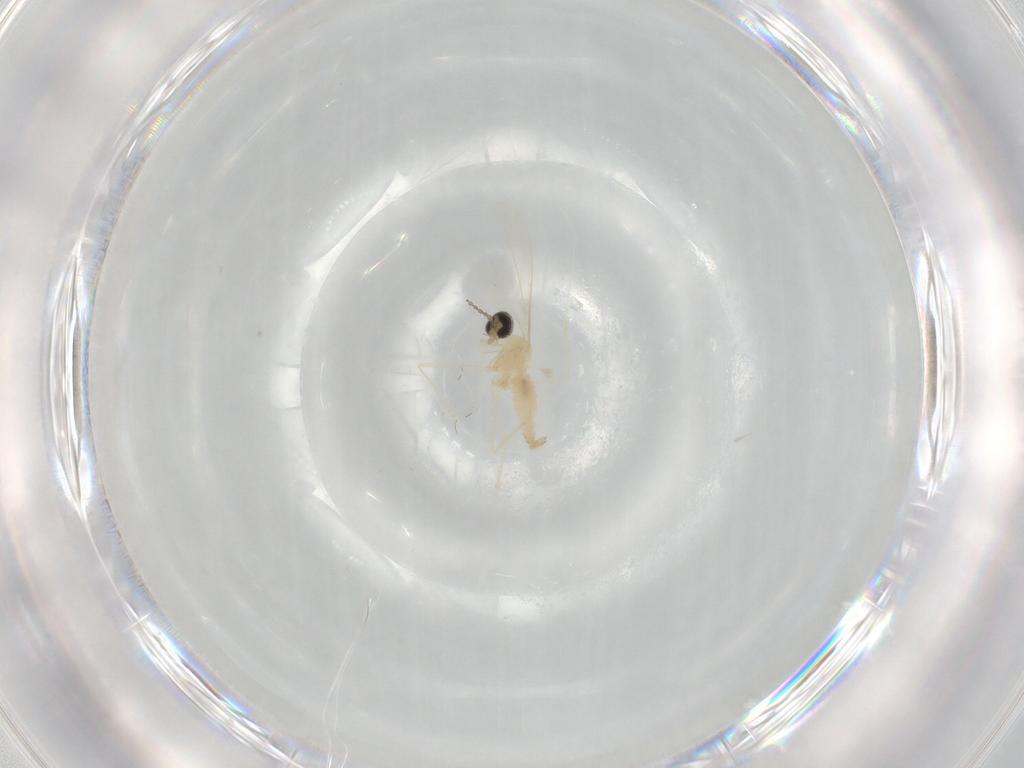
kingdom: Animalia
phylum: Arthropoda
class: Insecta
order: Diptera
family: Cecidomyiidae
